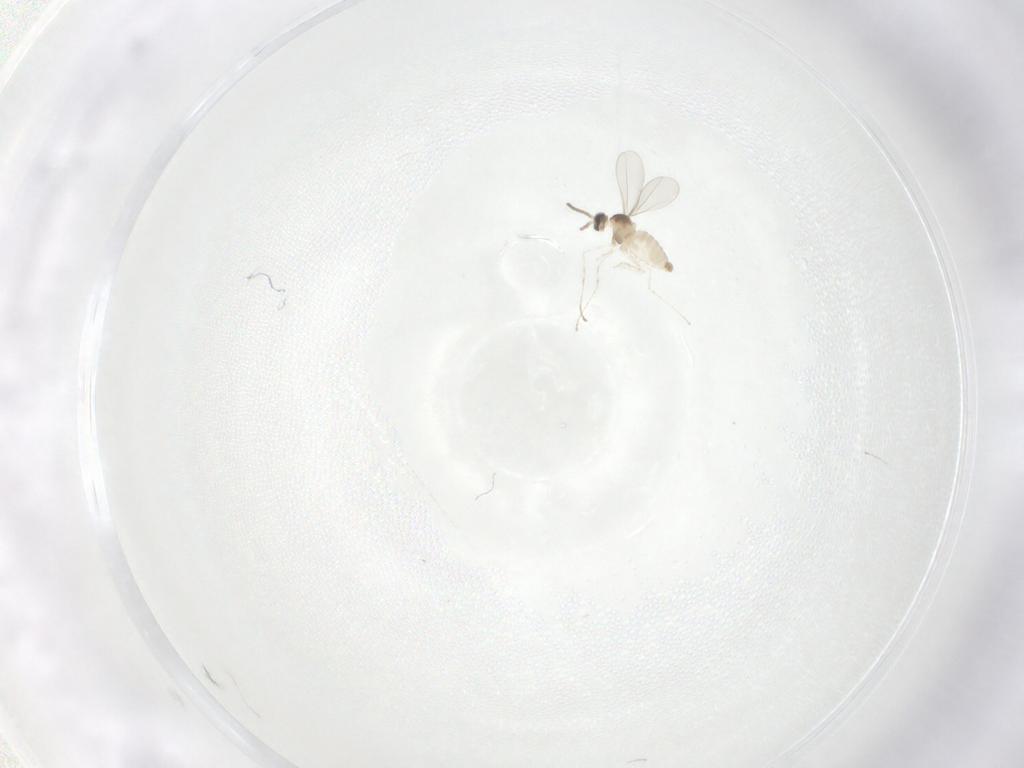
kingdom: Animalia
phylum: Arthropoda
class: Insecta
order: Diptera
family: Cecidomyiidae
